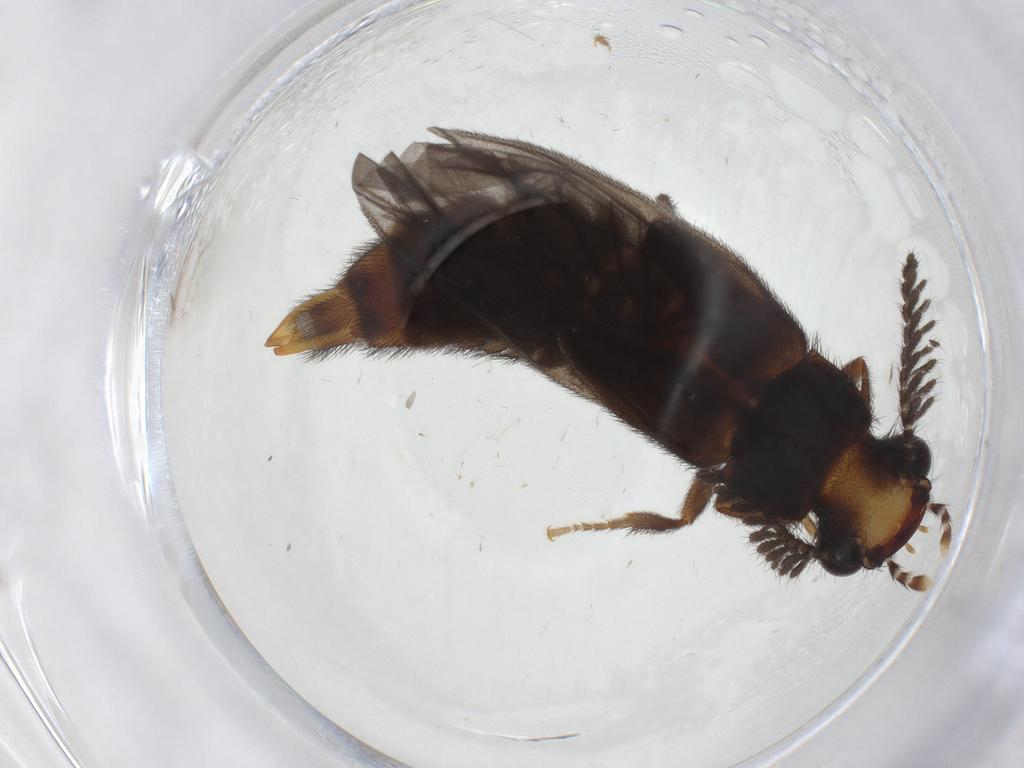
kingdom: Animalia
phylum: Arthropoda
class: Insecta
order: Coleoptera
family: Phengodidae
